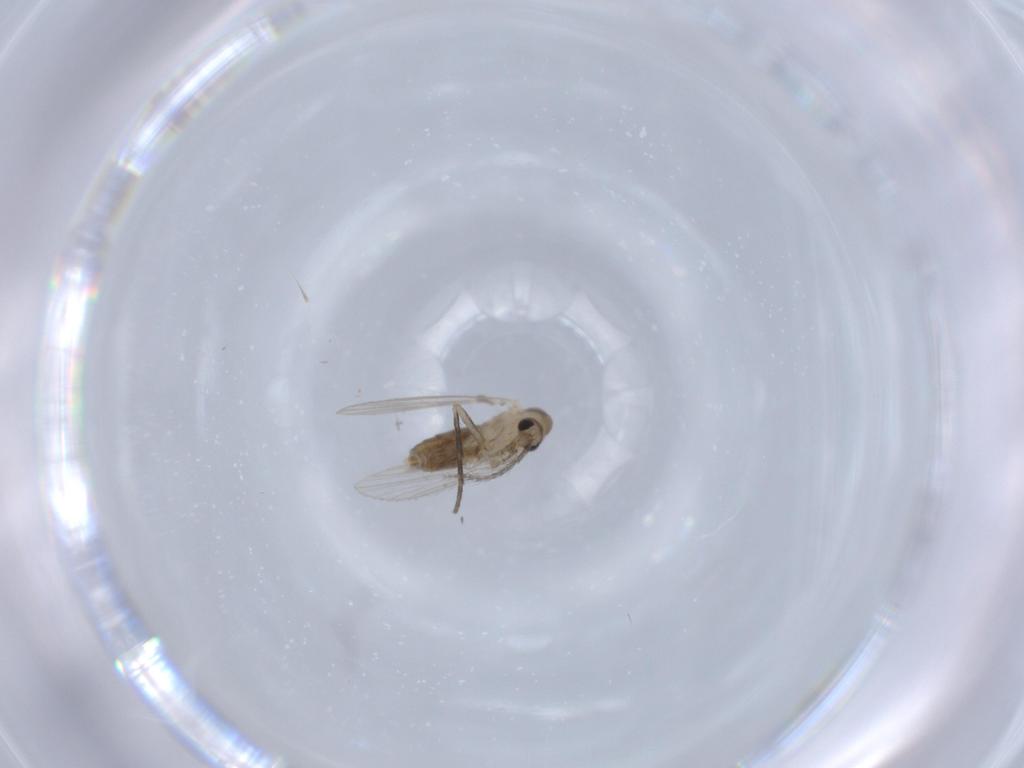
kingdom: Animalia
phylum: Arthropoda
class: Insecta
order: Diptera
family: Psychodidae
